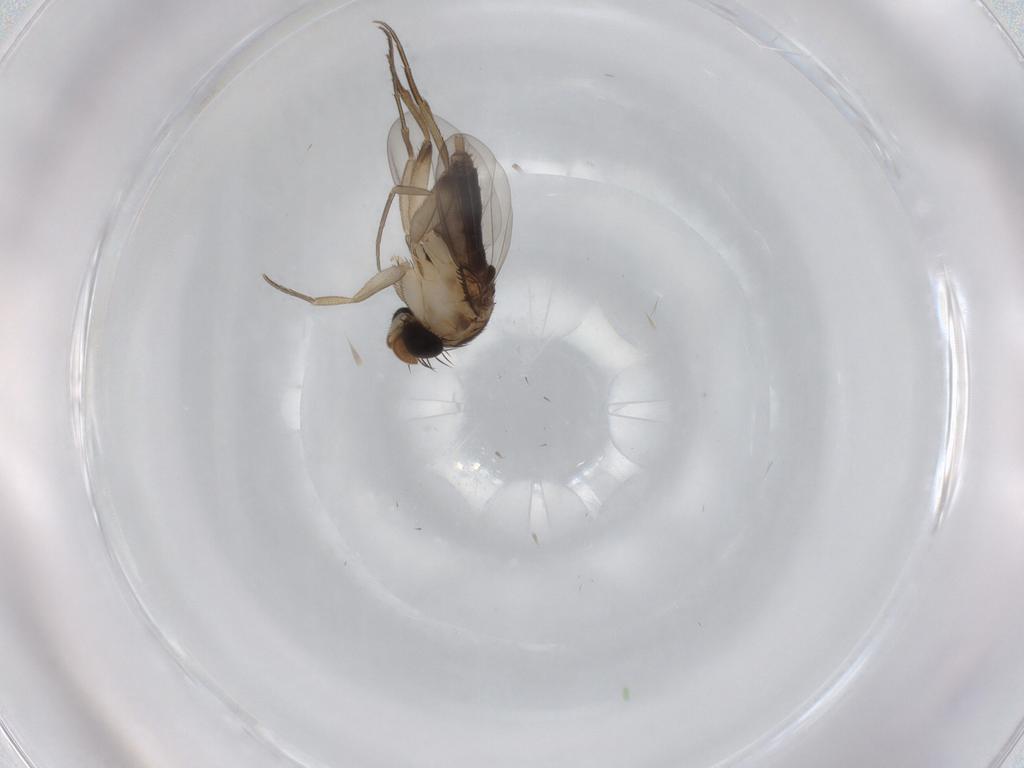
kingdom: Animalia
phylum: Arthropoda
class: Insecta
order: Diptera
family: Phoridae
